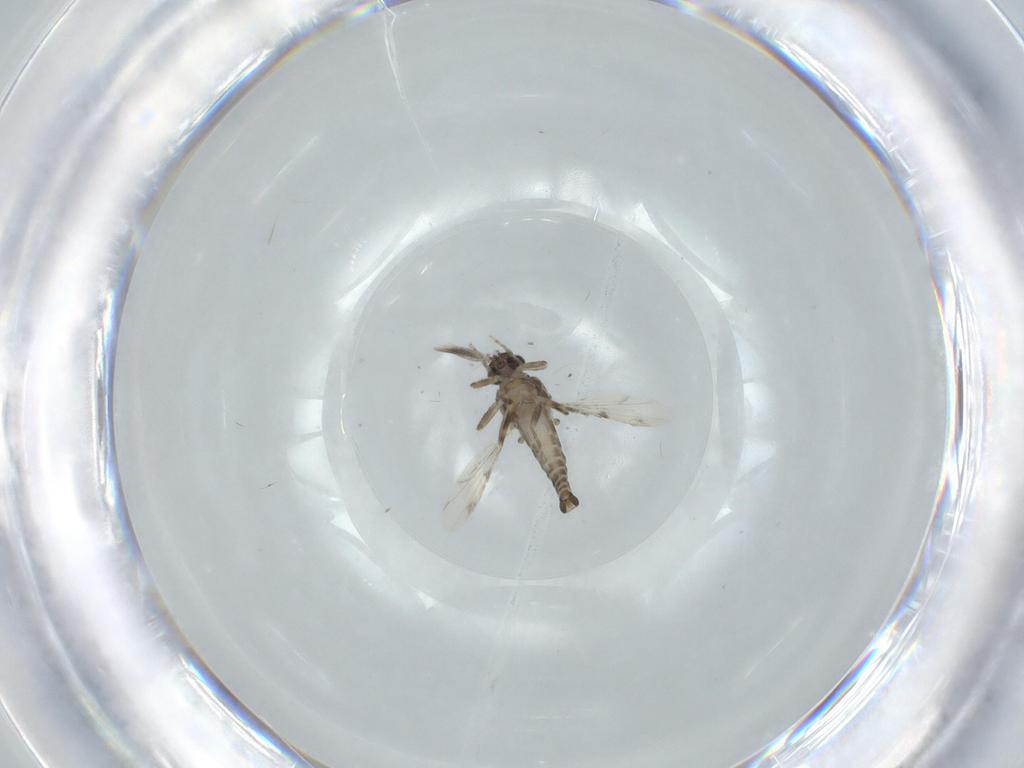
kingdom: Animalia
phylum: Arthropoda
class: Insecta
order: Diptera
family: Ceratopogonidae
